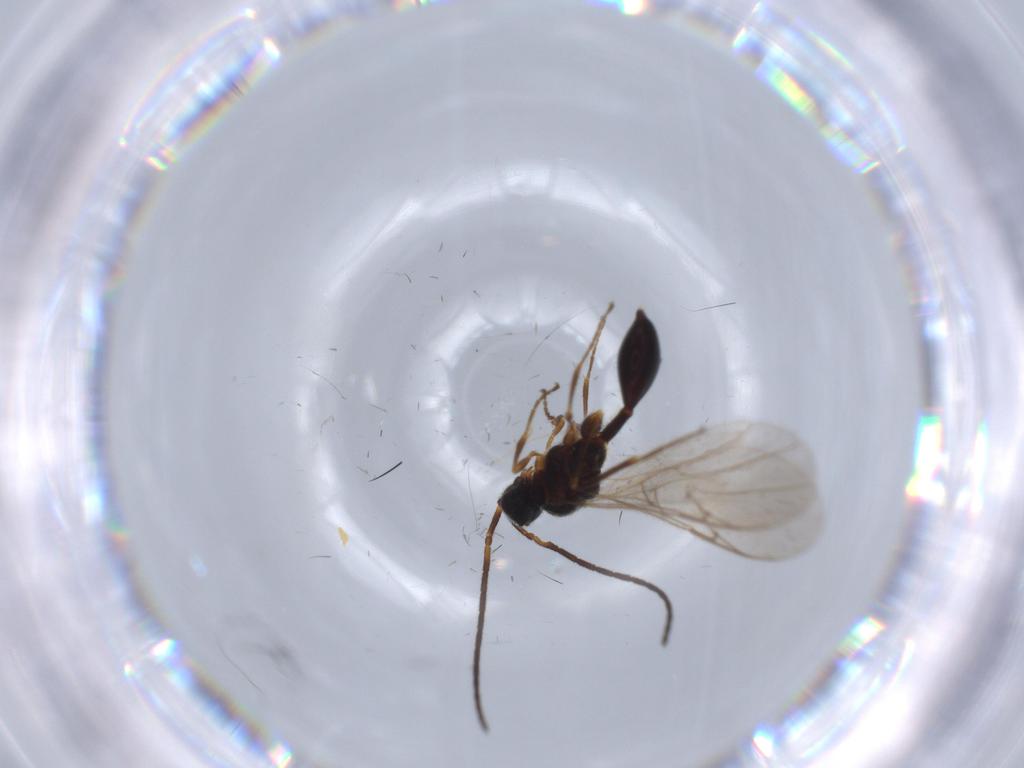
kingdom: Animalia
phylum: Arthropoda
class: Insecta
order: Hymenoptera
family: Diapriidae
